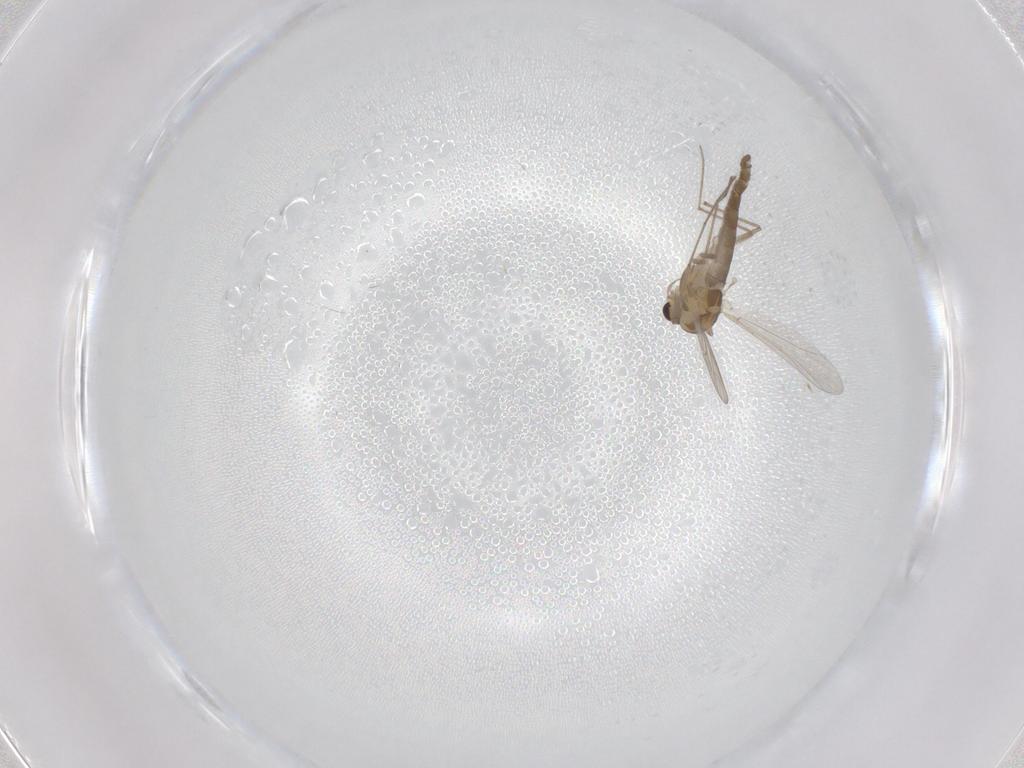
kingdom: Animalia
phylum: Arthropoda
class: Insecta
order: Diptera
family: Chironomidae
